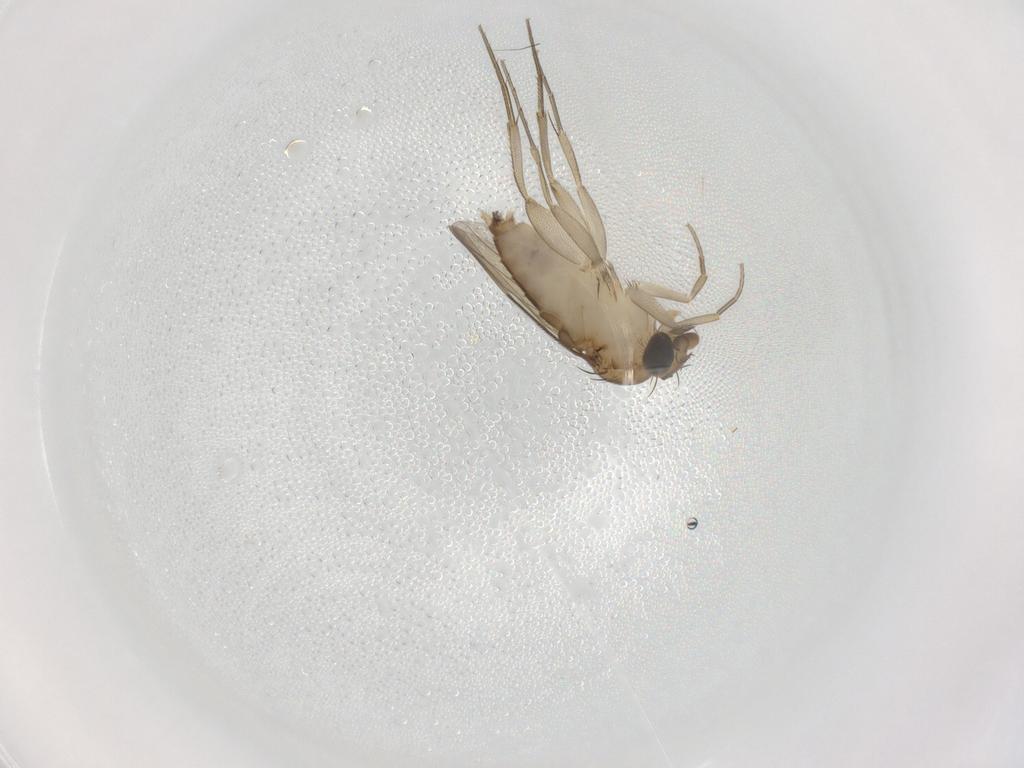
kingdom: Animalia
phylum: Arthropoda
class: Insecta
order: Diptera
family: Phoridae
